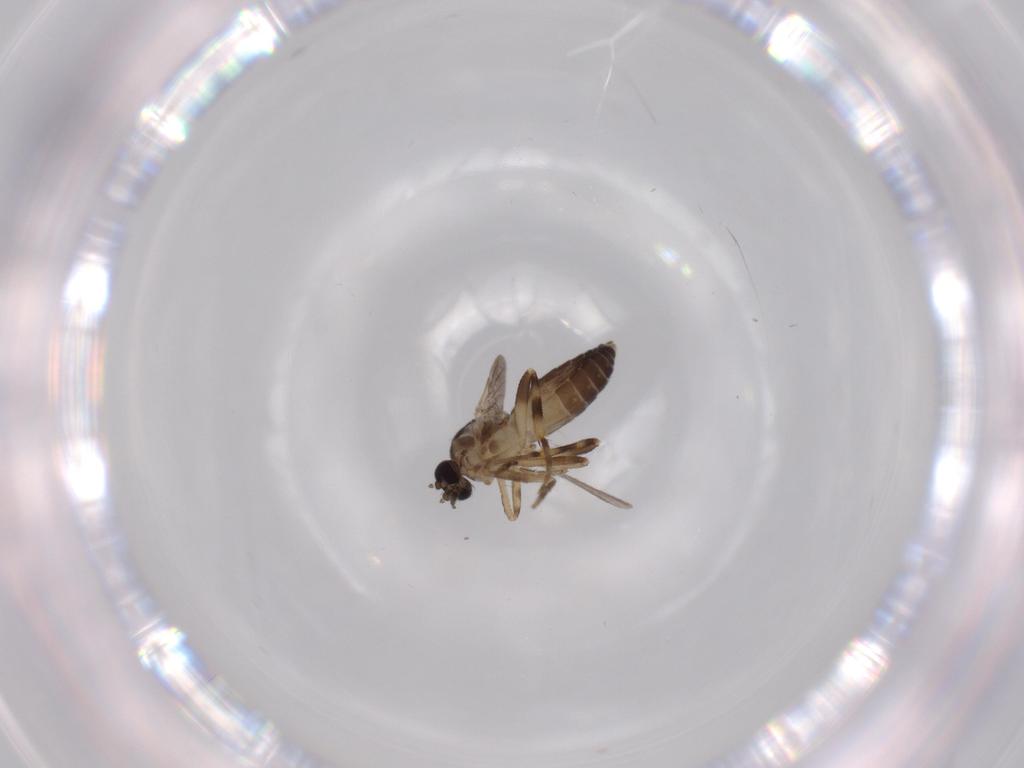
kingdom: Animalia
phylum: Arthropoda
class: Insecta
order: Diptera
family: Ceratopogonidae
